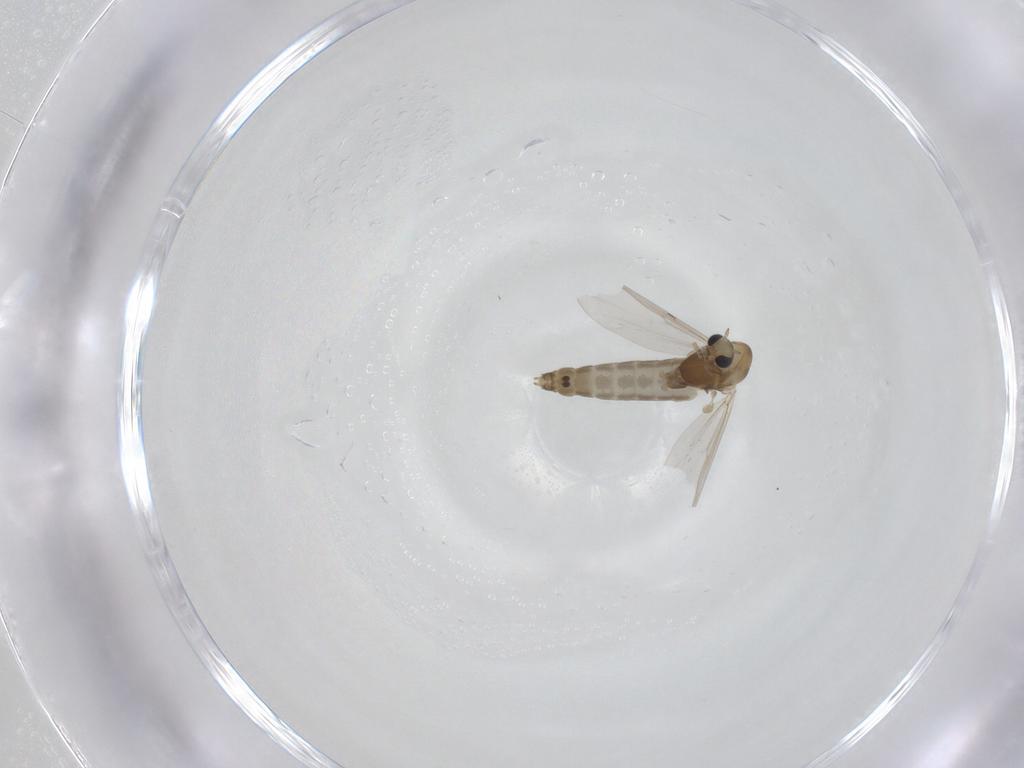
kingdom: Animalia
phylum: Arthropoda
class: Insecta
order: Diptera
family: Chironomidae
